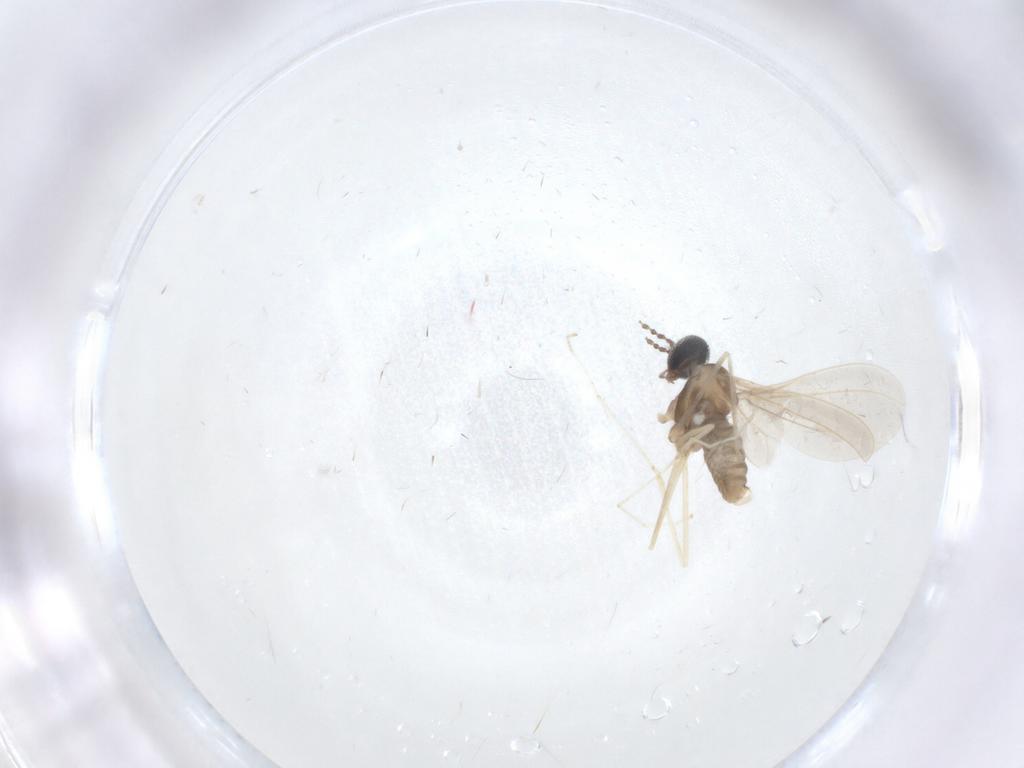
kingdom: Animalia
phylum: Arthropoda
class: Insecta
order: Diptera
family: Cecidomyiidae
